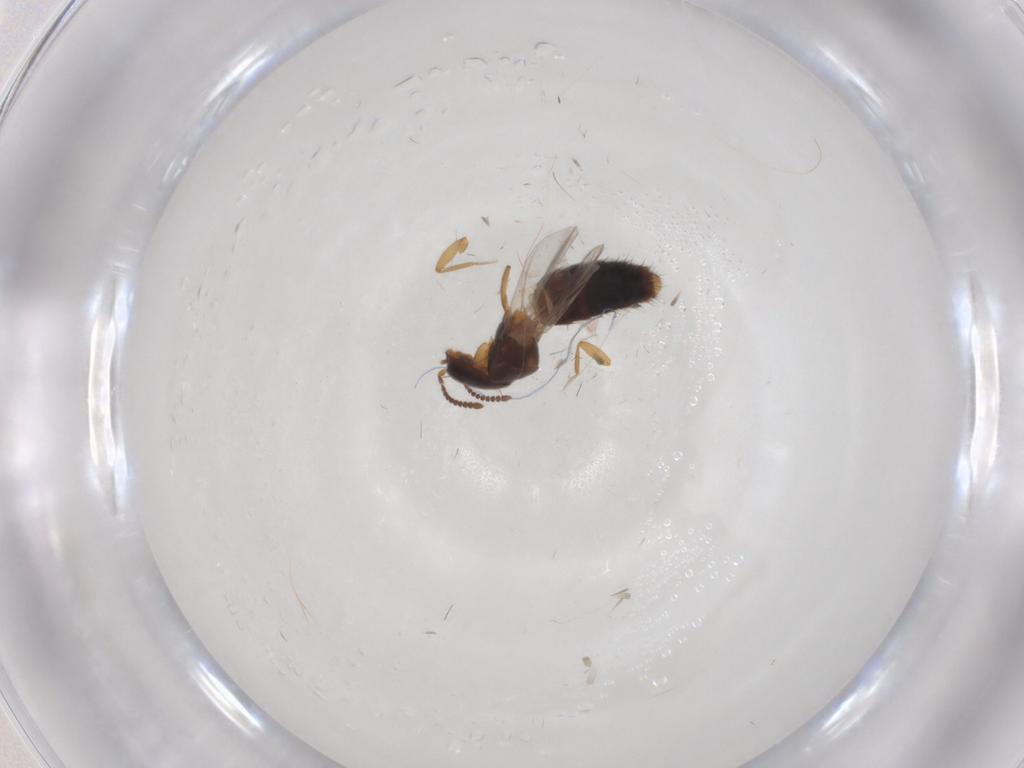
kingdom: Animalia
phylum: Arthropoda
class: Insecta
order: Coleoptera
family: Staphylinidae
